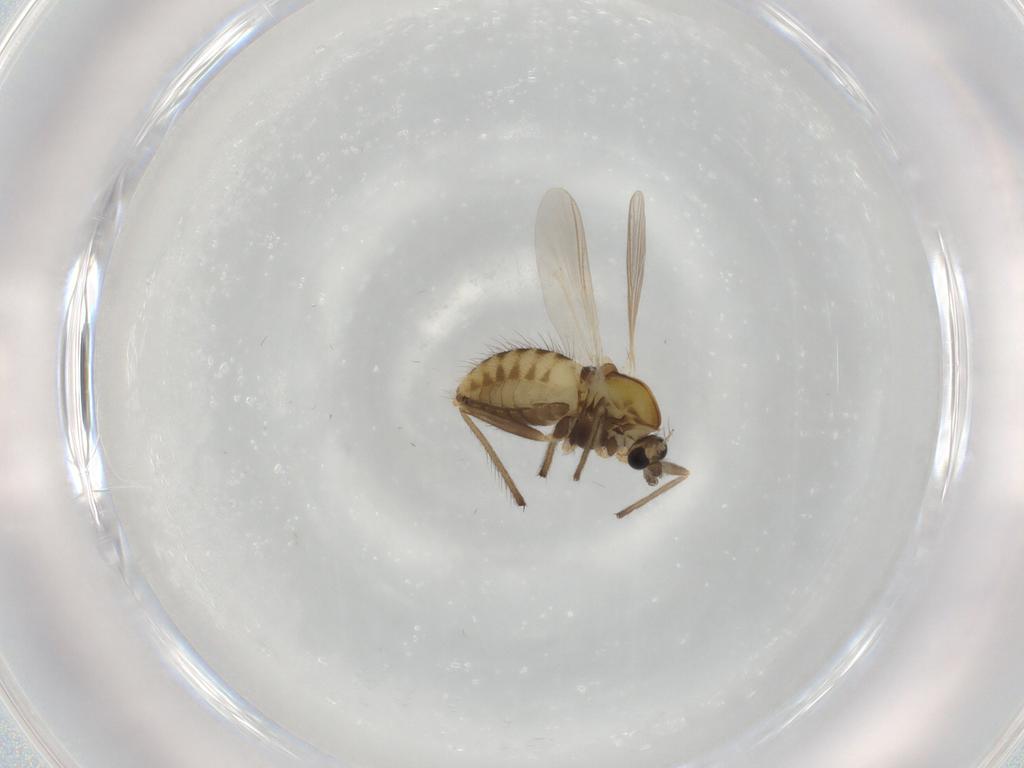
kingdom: Animalia
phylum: Arthropoda
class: Insecta
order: Diptera
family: Chironomidae
